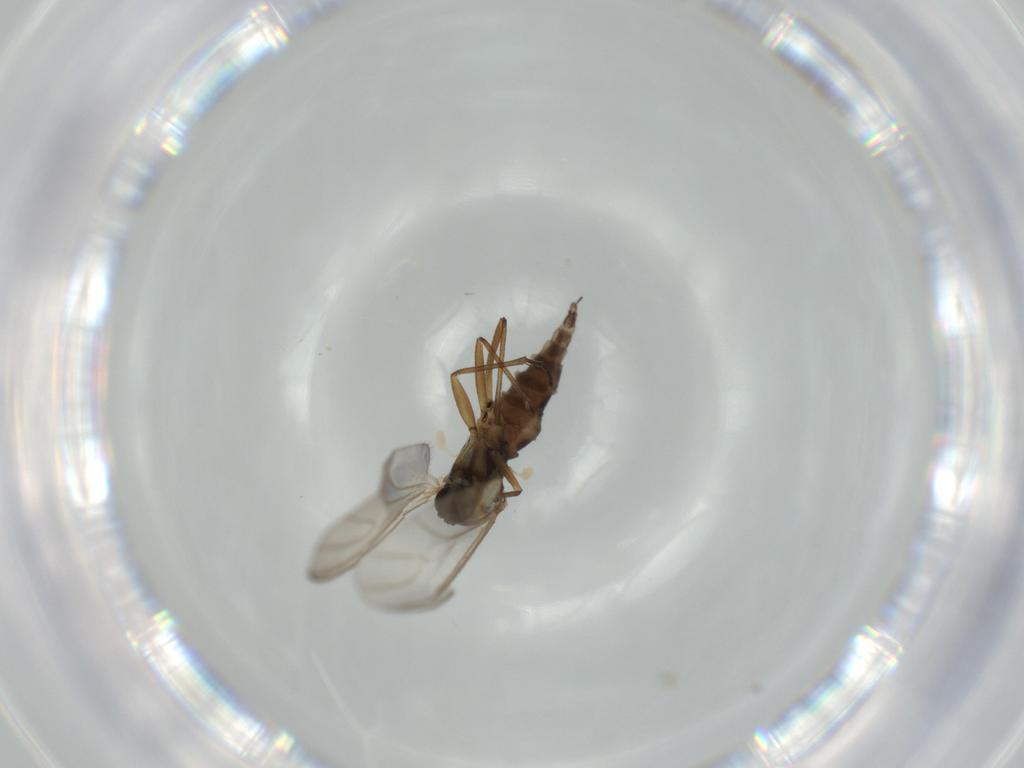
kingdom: Animalia
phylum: Arthropoda
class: Insecta
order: Diptera
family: Sciaridae
